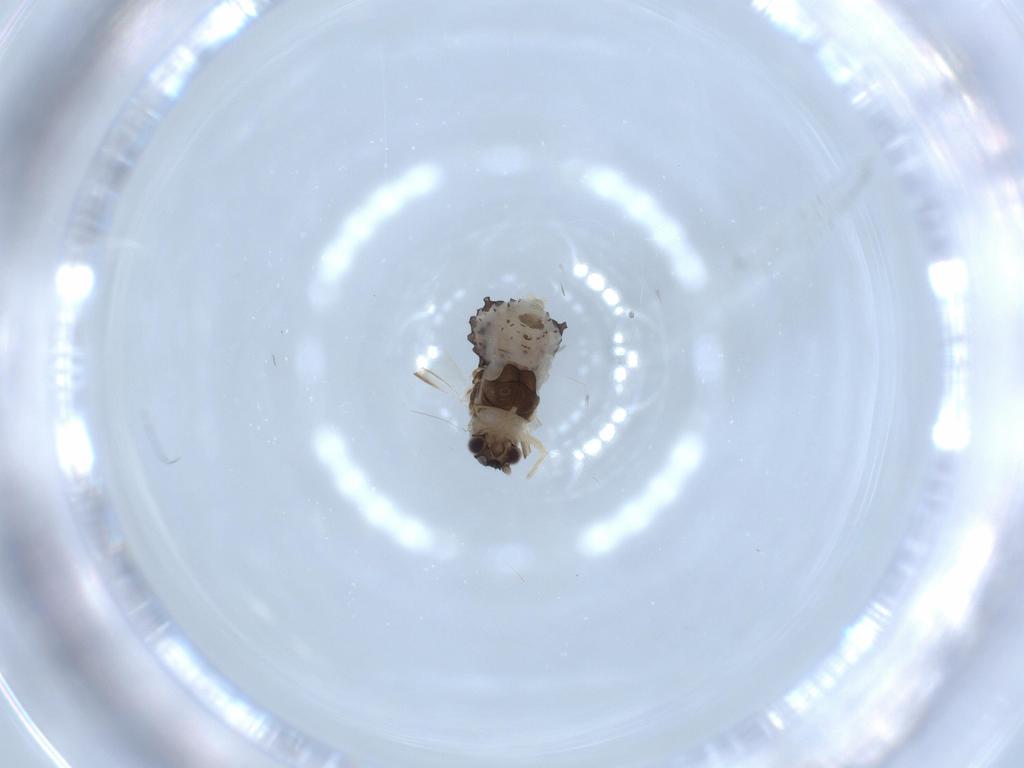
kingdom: Animalia
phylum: Arthropoda
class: Insecta
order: Hemiptera
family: Aphididae
